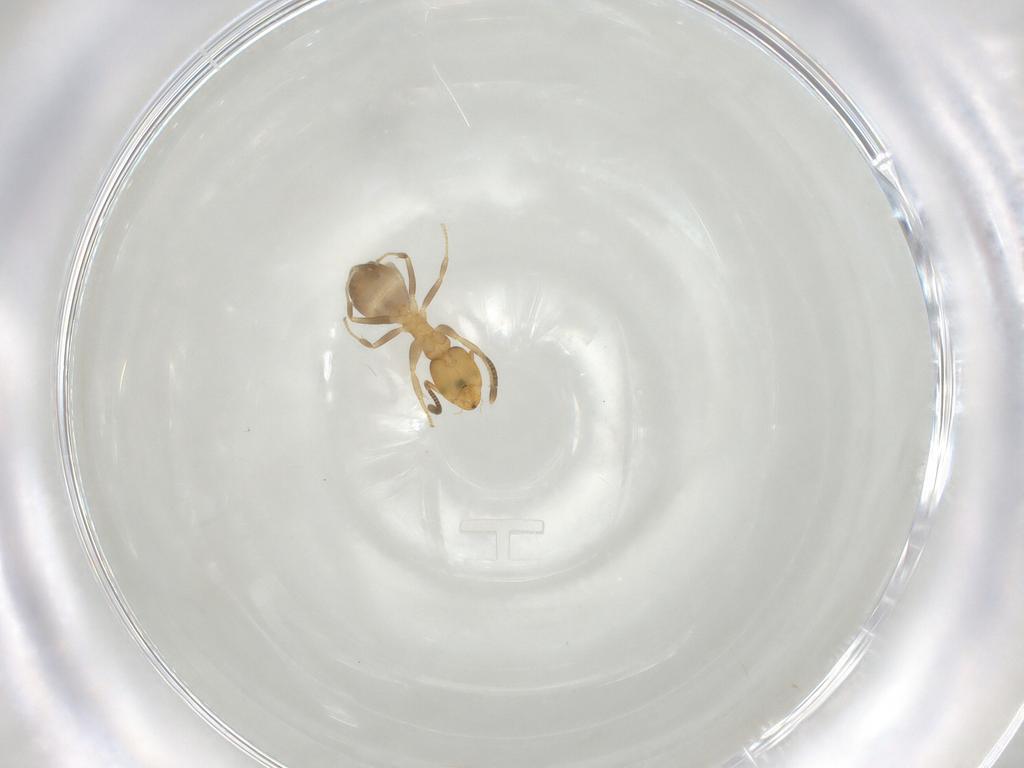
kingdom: Animalia
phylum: Arthropoda
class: Insecta
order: Hymenoptera
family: Formicidae
